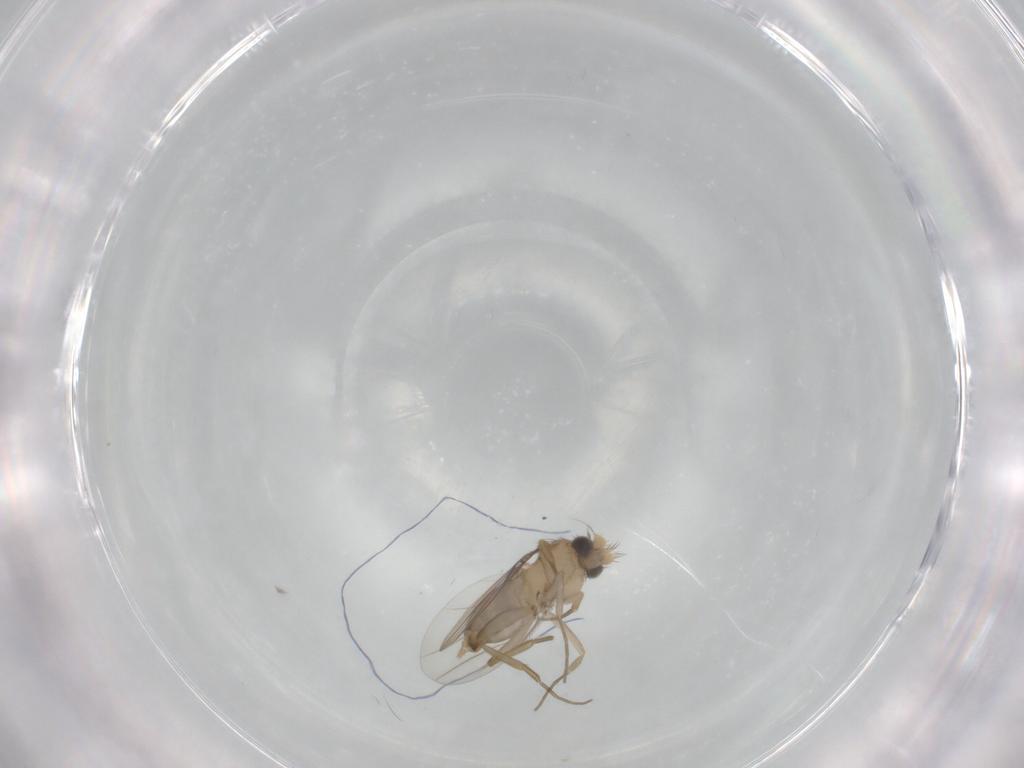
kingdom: Animalia
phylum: Arthropoda
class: Insecta
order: Diptera
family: Phoridae
